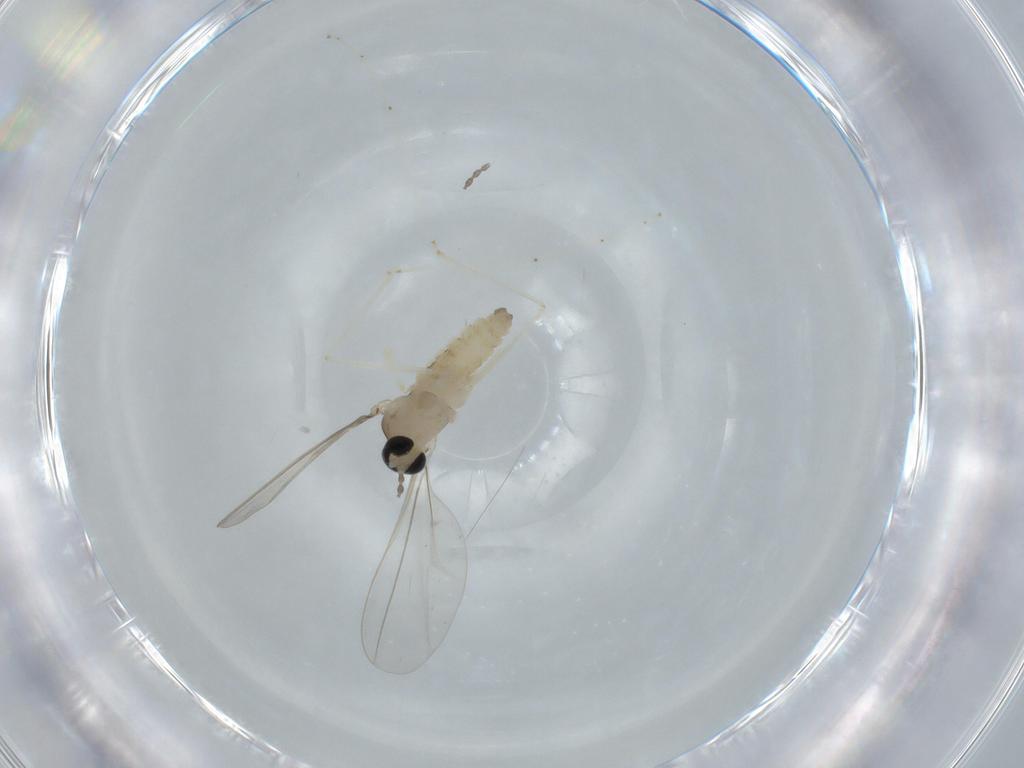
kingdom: Animalia
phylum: Arthropoda
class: Insecta
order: Diptera
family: Cecidomyiidae
